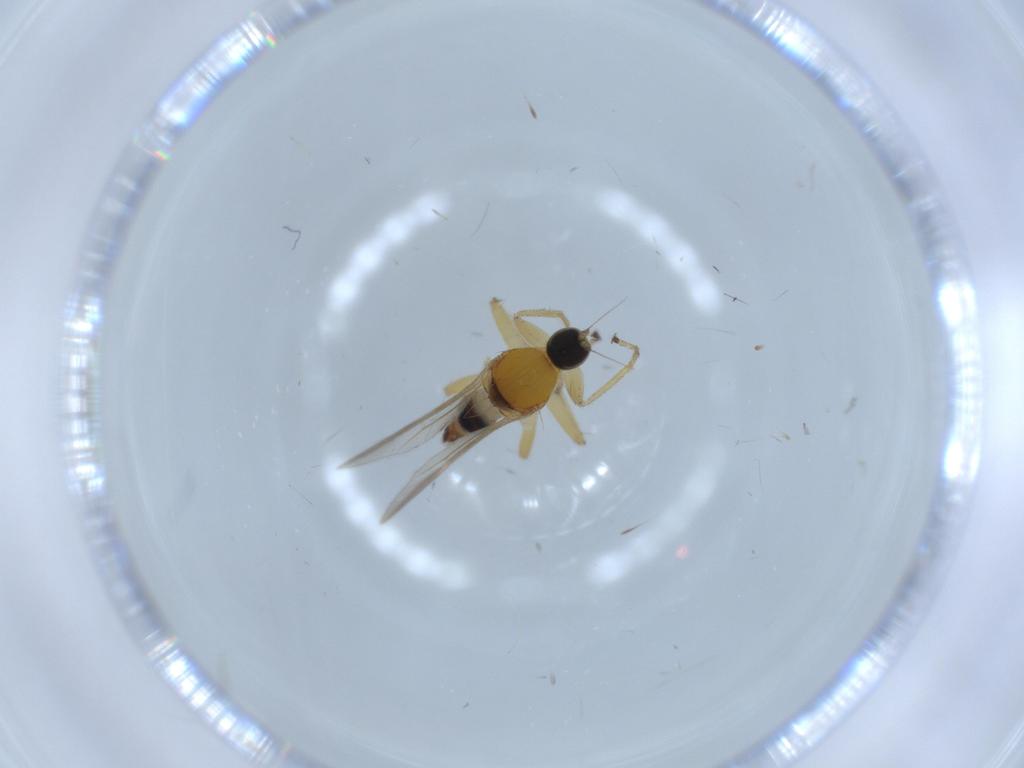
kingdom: Animalia
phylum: Arthropoda
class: Insecta
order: Diptera
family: Hybotidae
